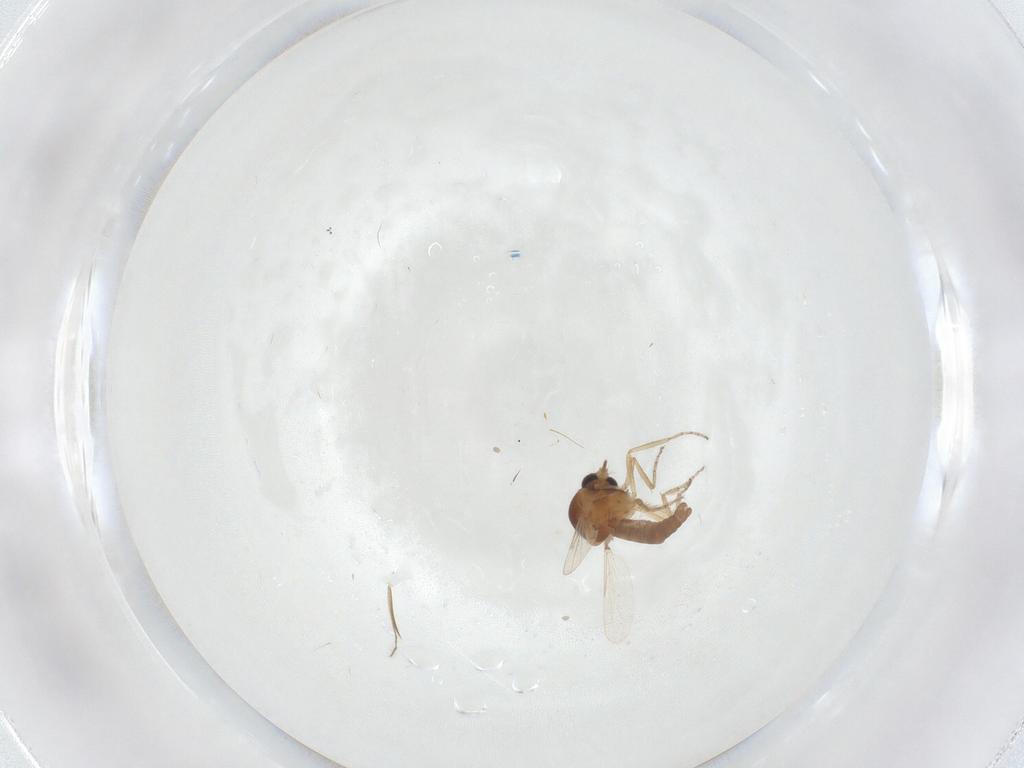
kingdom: Animalia
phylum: Arthropoda
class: Insecta
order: Diptera
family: Ceratopogonidae
